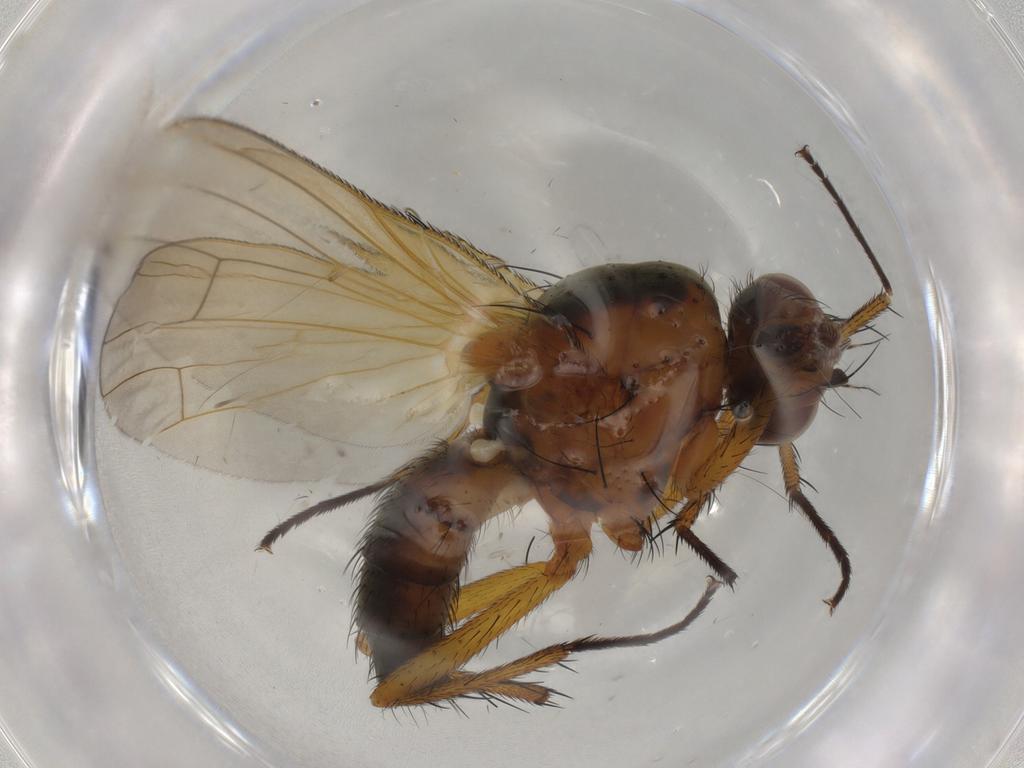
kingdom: Animalia
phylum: Arthropoda
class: Insecta
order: Diptera
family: Anthomyiidae
